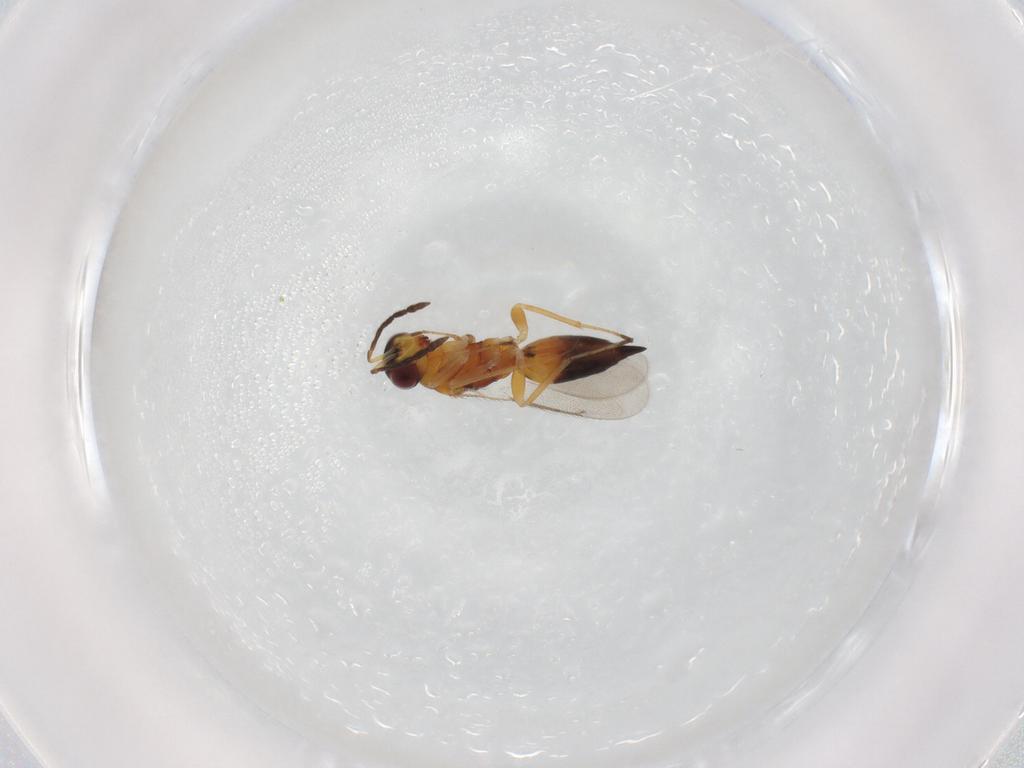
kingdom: Animalia
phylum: Arthropoda
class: Insecta
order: Hymenoptera
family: Eulophidae
